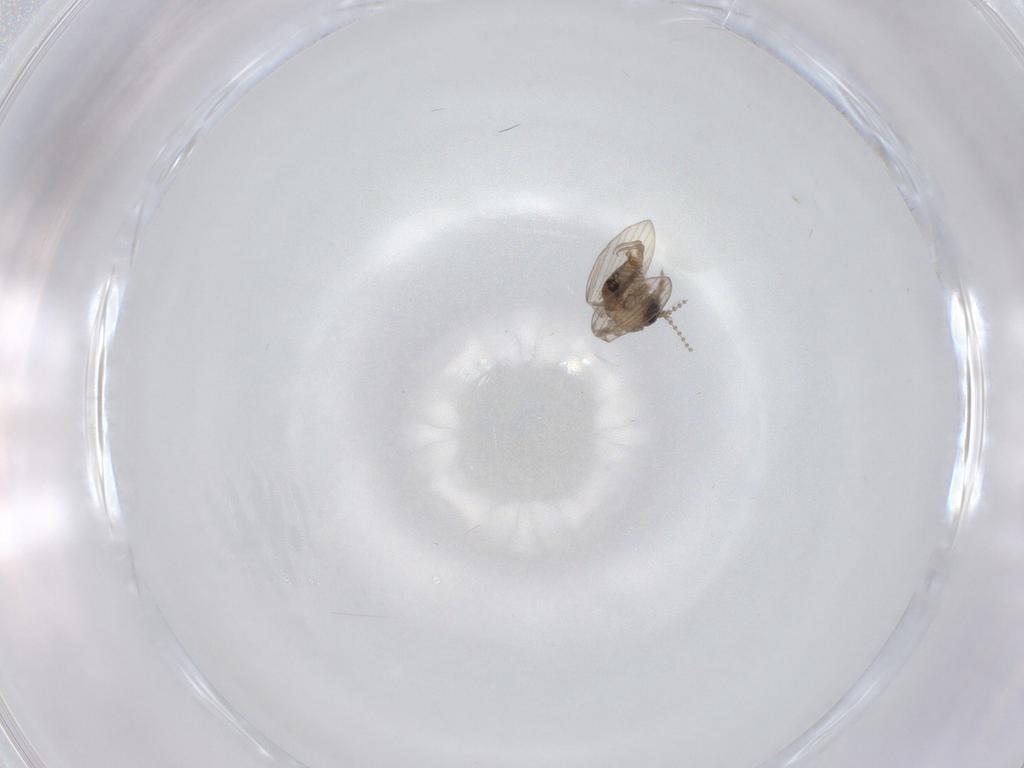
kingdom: Animalia
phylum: Arthropoda
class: Insecta
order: Diptera
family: Psychodidae
